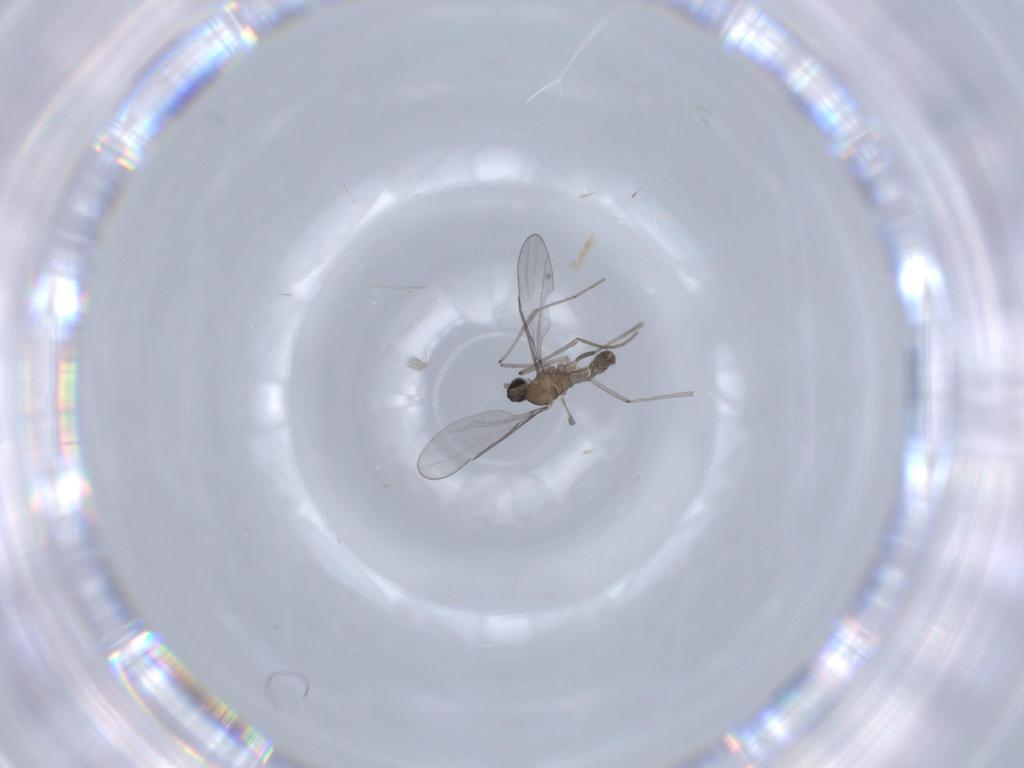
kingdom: Animalia
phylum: Arthropoda
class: Insecta
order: Diptera
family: Cecidomyiidae
